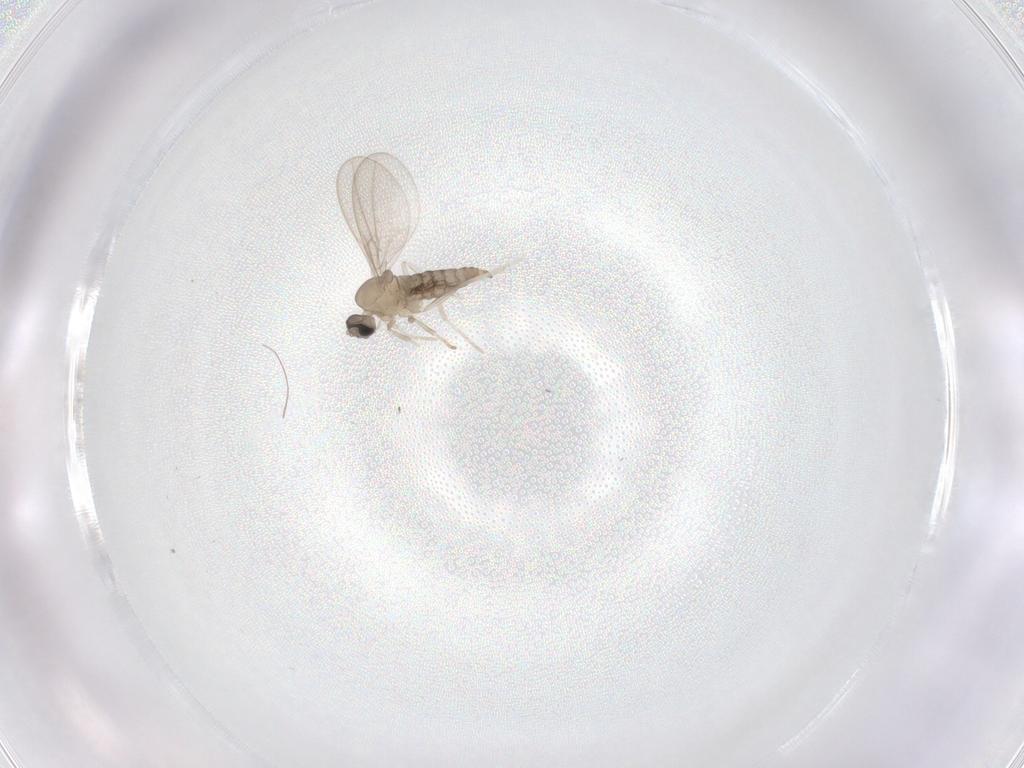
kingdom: Animalia
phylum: Arthropoda
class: Insecta
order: Diptera
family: Cecidomyiidae
